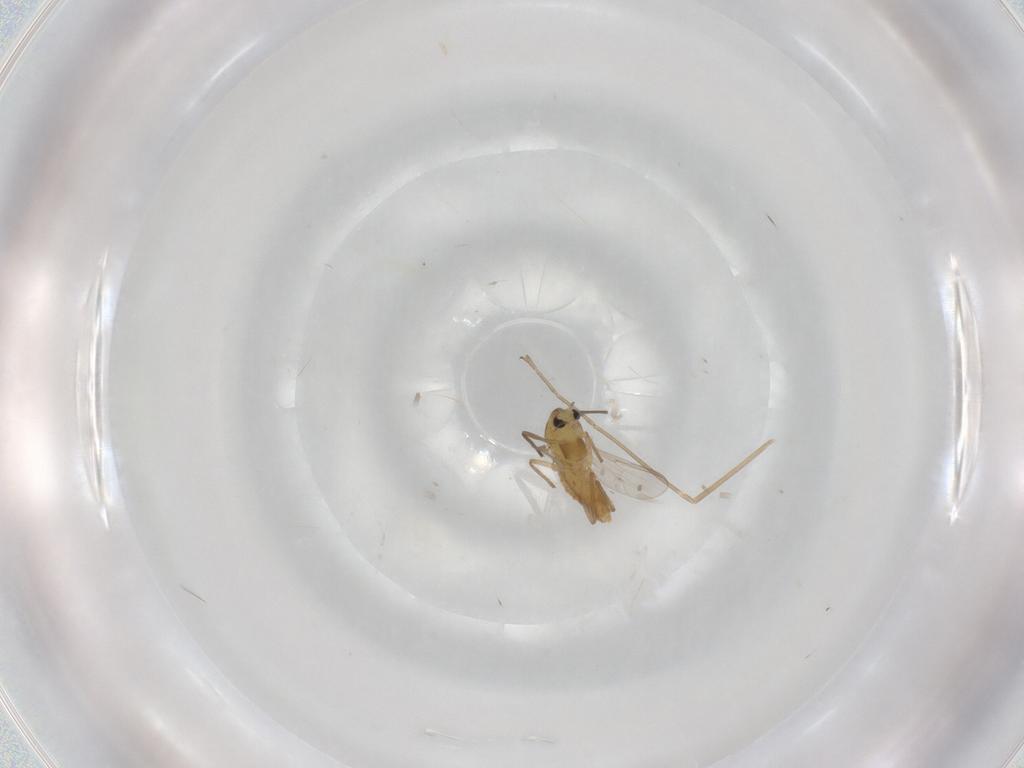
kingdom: Animalia
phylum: Arthropoda
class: Insecta
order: Diptera
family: Chironomidae
